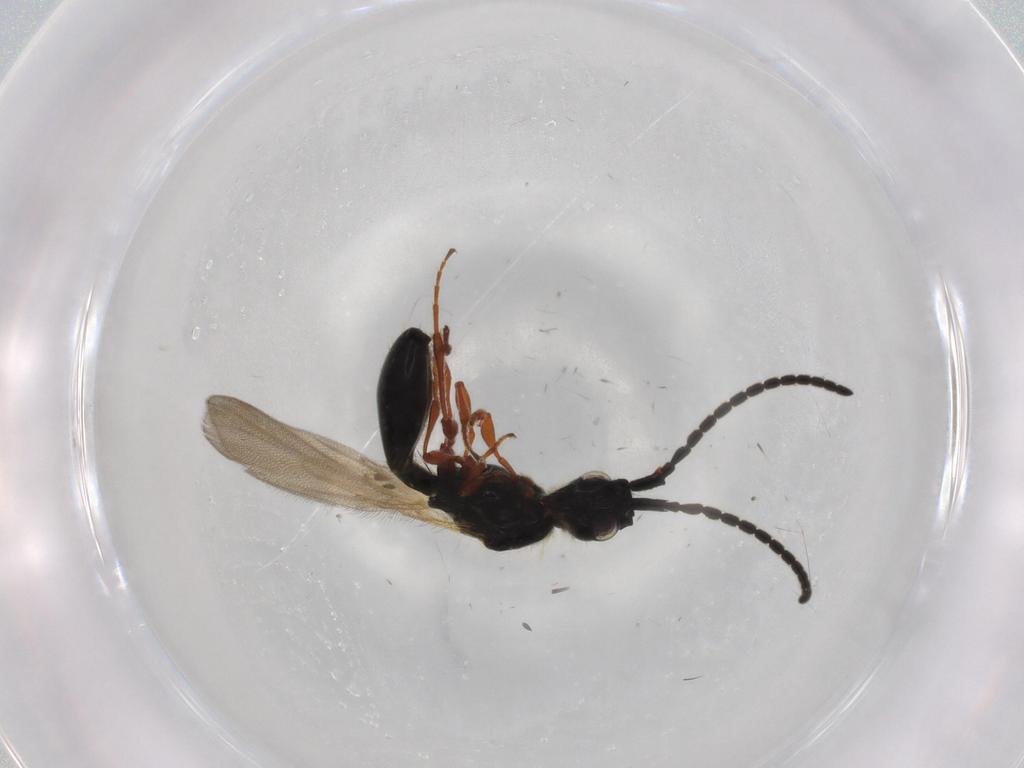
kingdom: Animalia
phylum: Arthropoda
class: Insecta
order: Hymenoptera
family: Diapriidae
